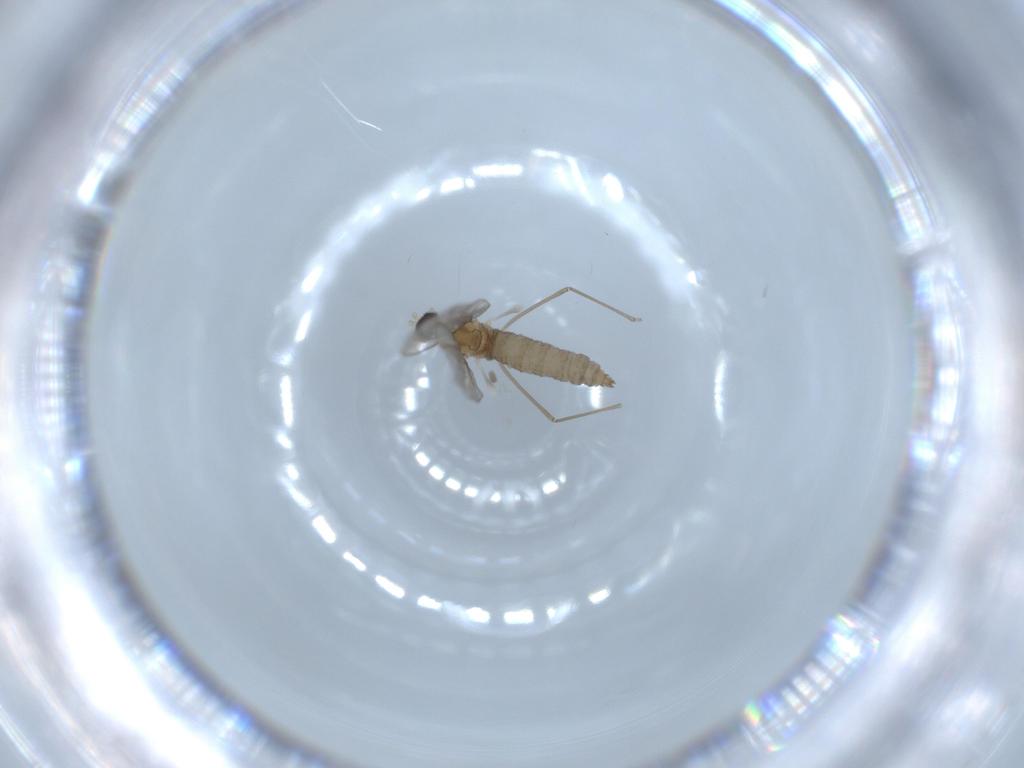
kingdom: Animalia
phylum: Arthropoda
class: Insecta
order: Diptera
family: Cecidomyiidae
